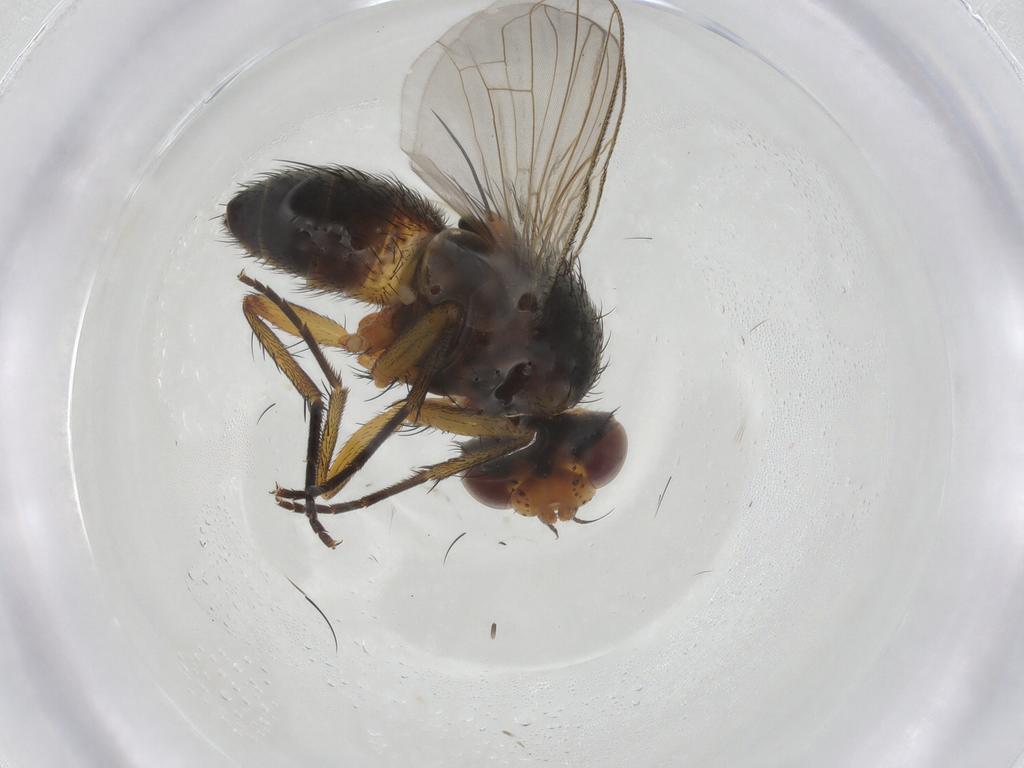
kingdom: Animalia
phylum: Arthropoda
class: Insecta
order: Diptera
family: Tachinidae
